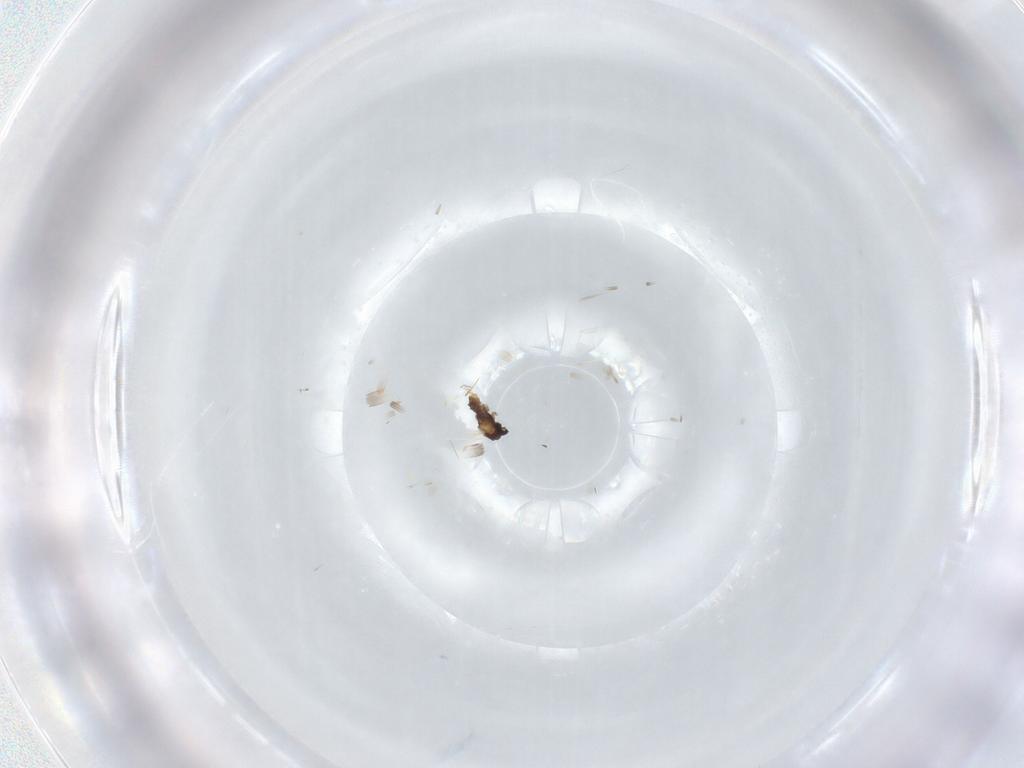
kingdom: Animalia
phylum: Arthropoda
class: Insecta
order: Diptera
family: Cecidomyiidae
